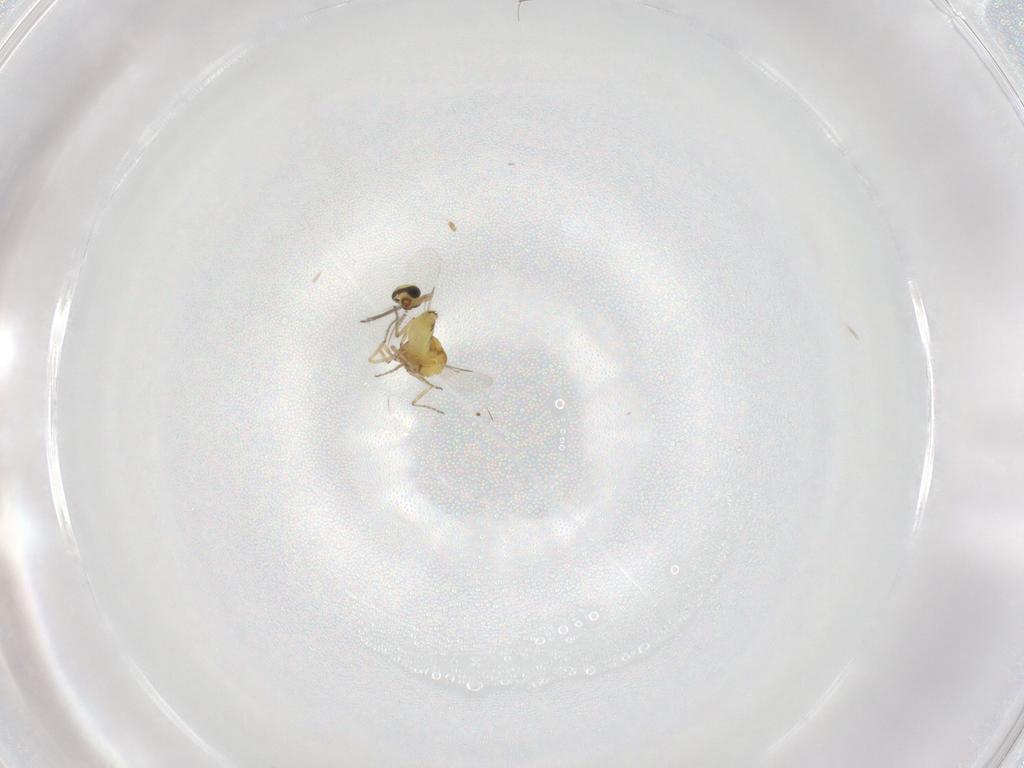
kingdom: Animalia
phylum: Arthropoda
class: Insecta
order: Diptera
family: Ceratopogonidae
